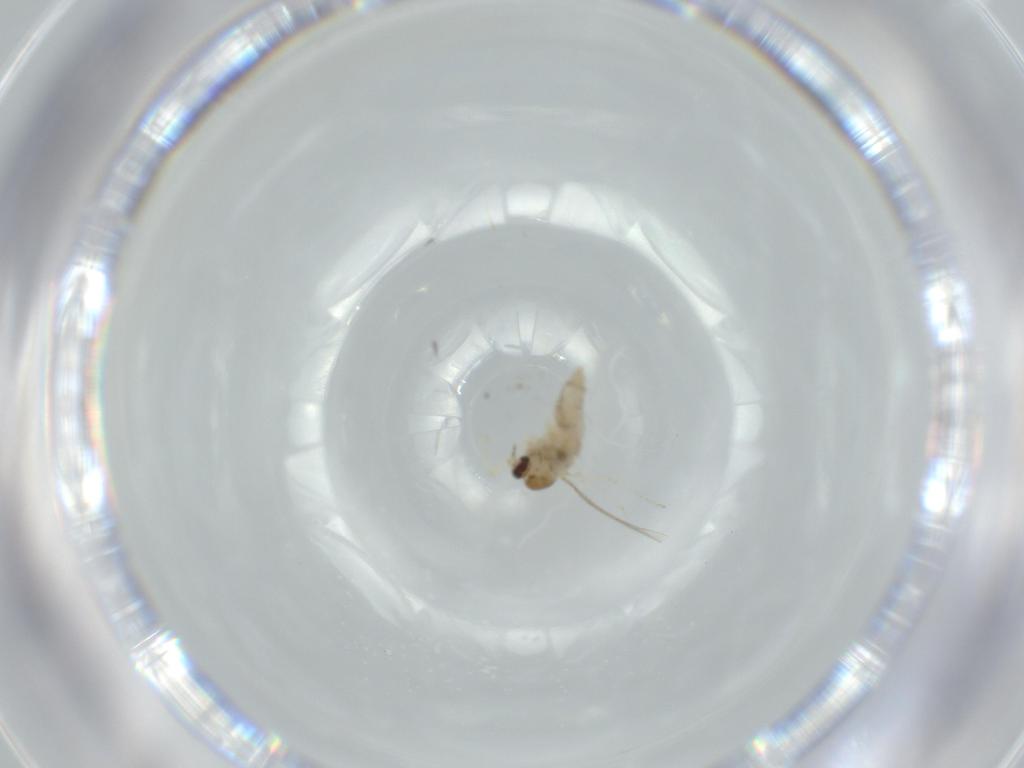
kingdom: Animalia
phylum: Arthropoda
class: Insecta
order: Diptera
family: Cecidomyiidae
